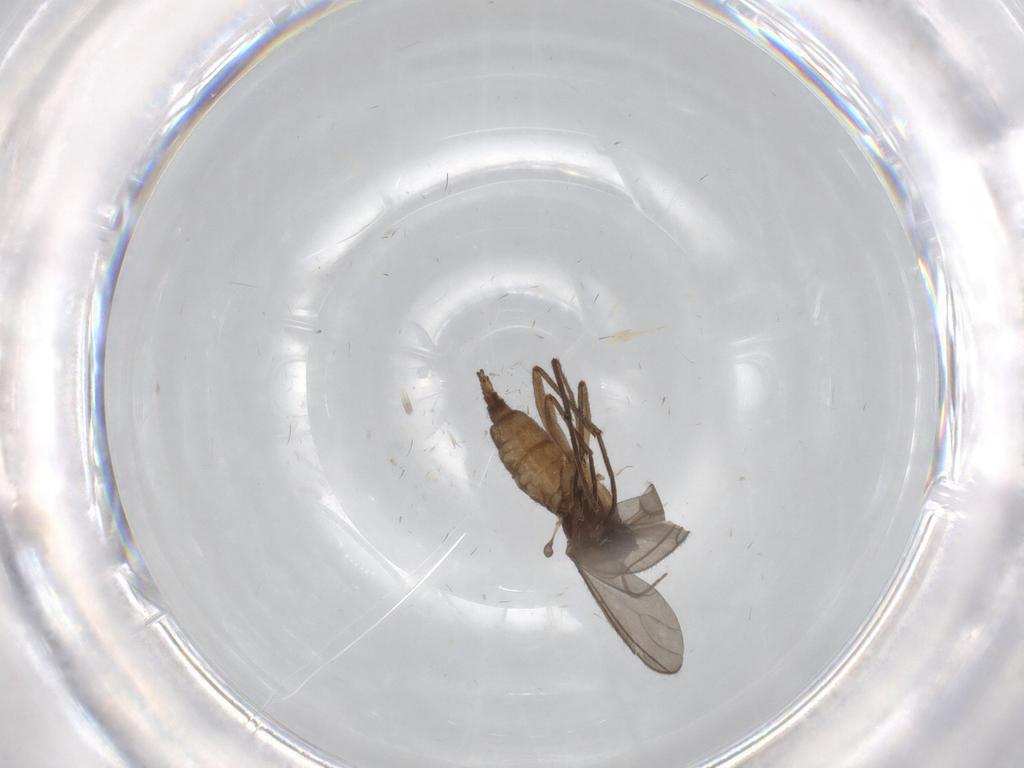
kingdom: Animalia
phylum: Arthropoda
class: Insecta
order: Diptera
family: Sciaridae
